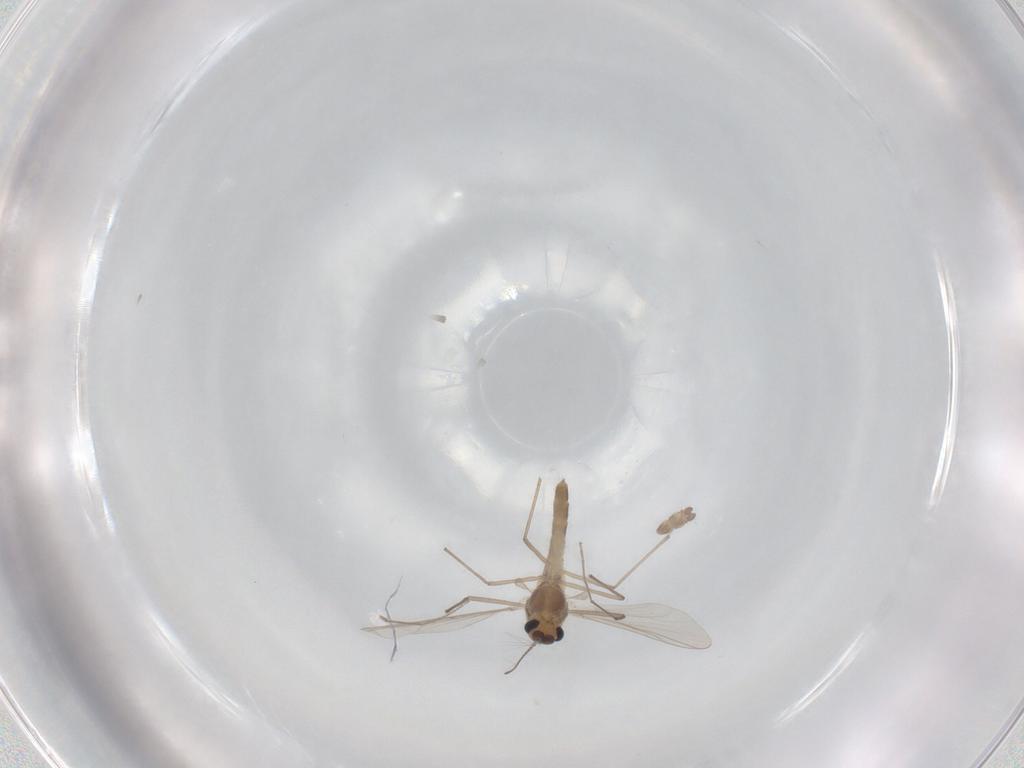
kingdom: Animalia
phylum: Arthropoda
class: Insecta
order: Diptera
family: Chironomidae
